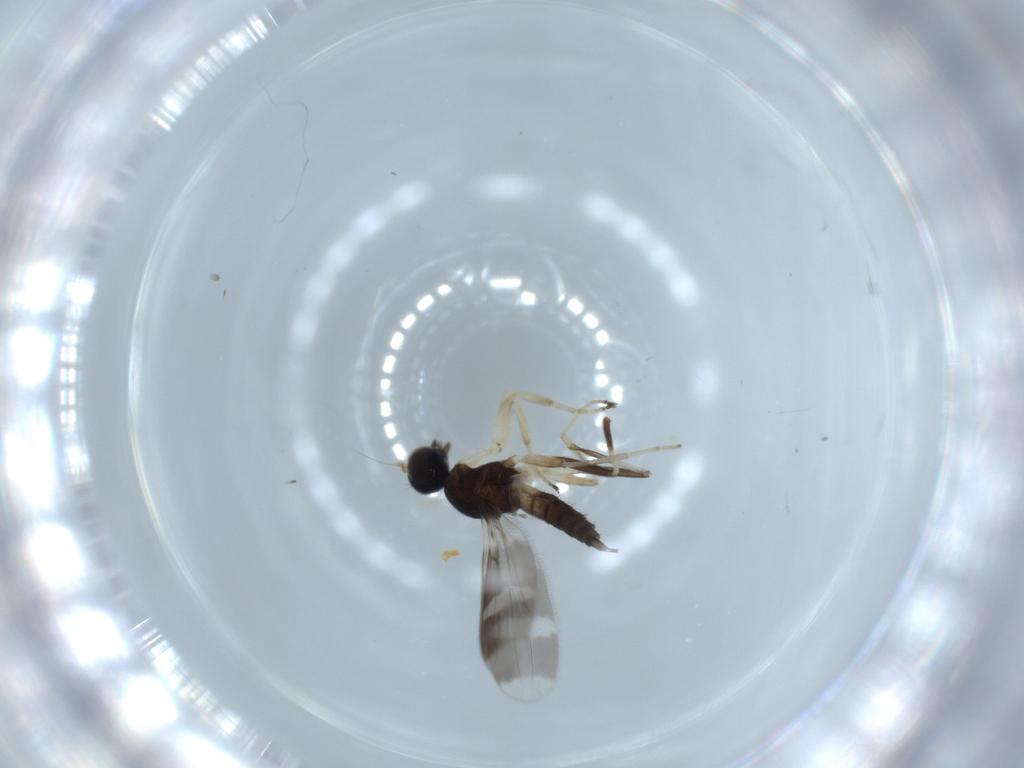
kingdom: Animalia
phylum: Arthropoda
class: Insecta
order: Diptera
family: Hybotidae
